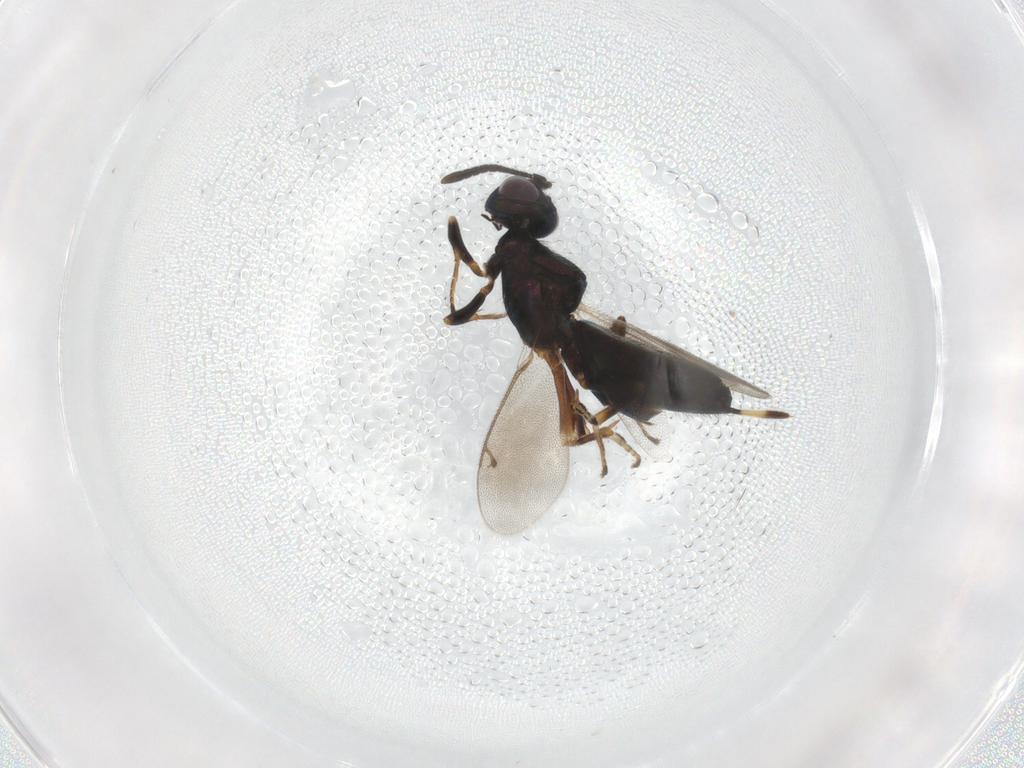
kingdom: Animalia
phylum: Arthropoda
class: Insecta
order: Hymenoptera
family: Eupelmidae
